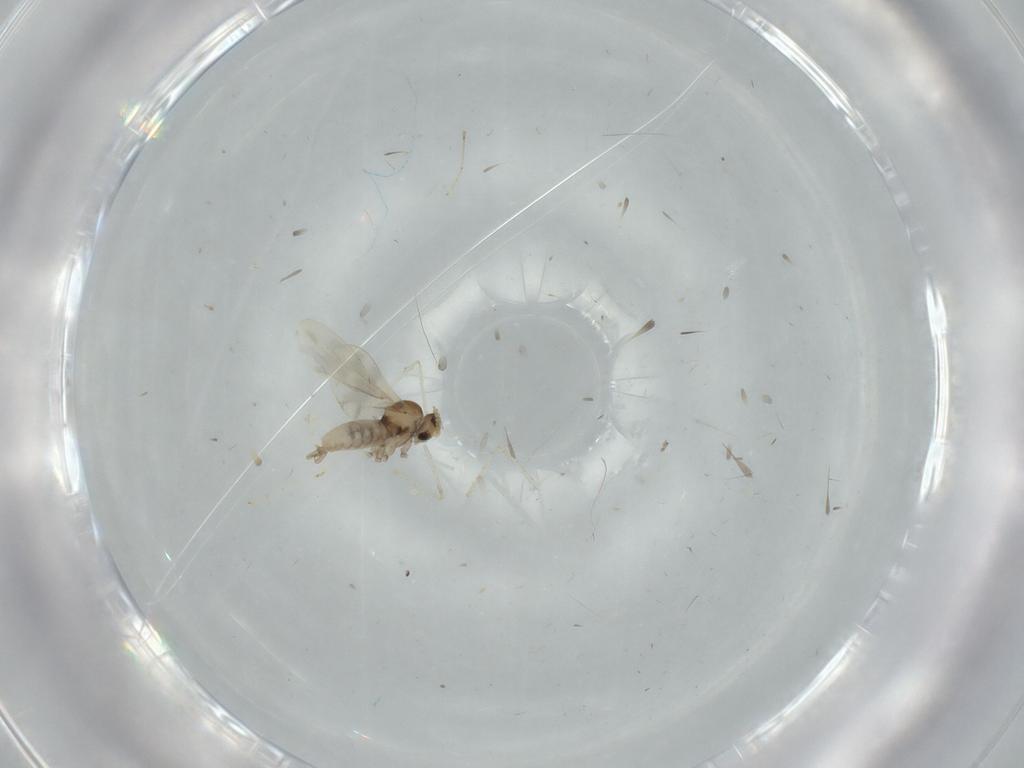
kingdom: Animalia
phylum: Arthropoda
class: Insecta
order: Diptera
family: Cecidomyiidae
